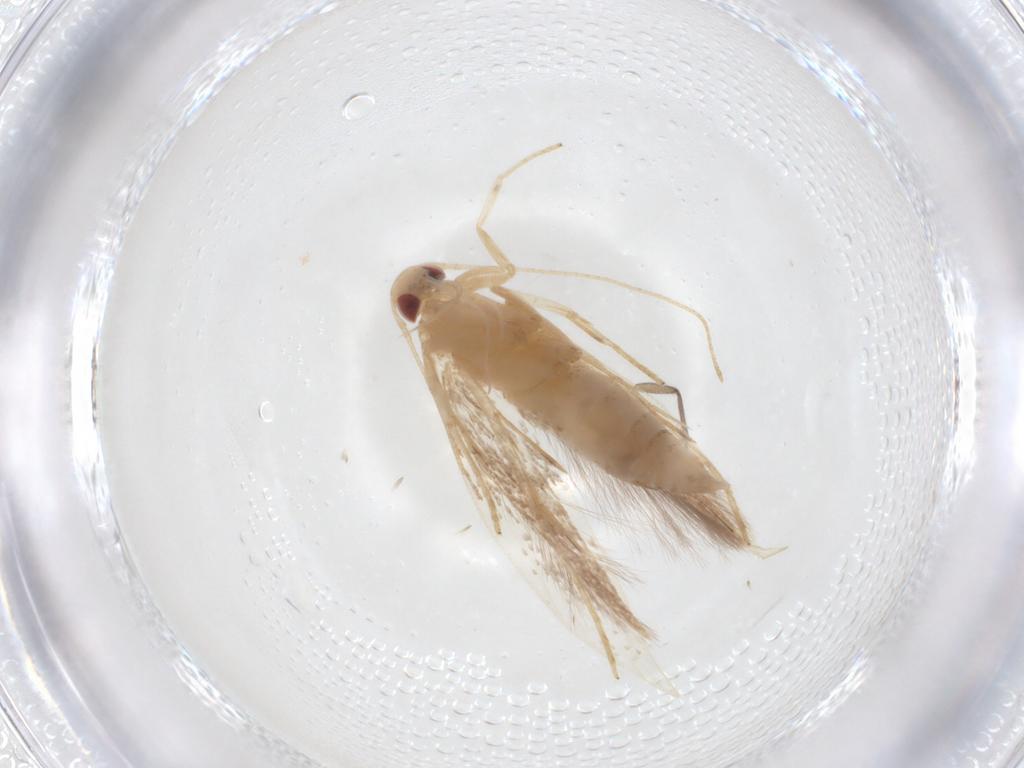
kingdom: Animalia
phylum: Arthropoda
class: Insecta
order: Lepidoptera
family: Erebidae
